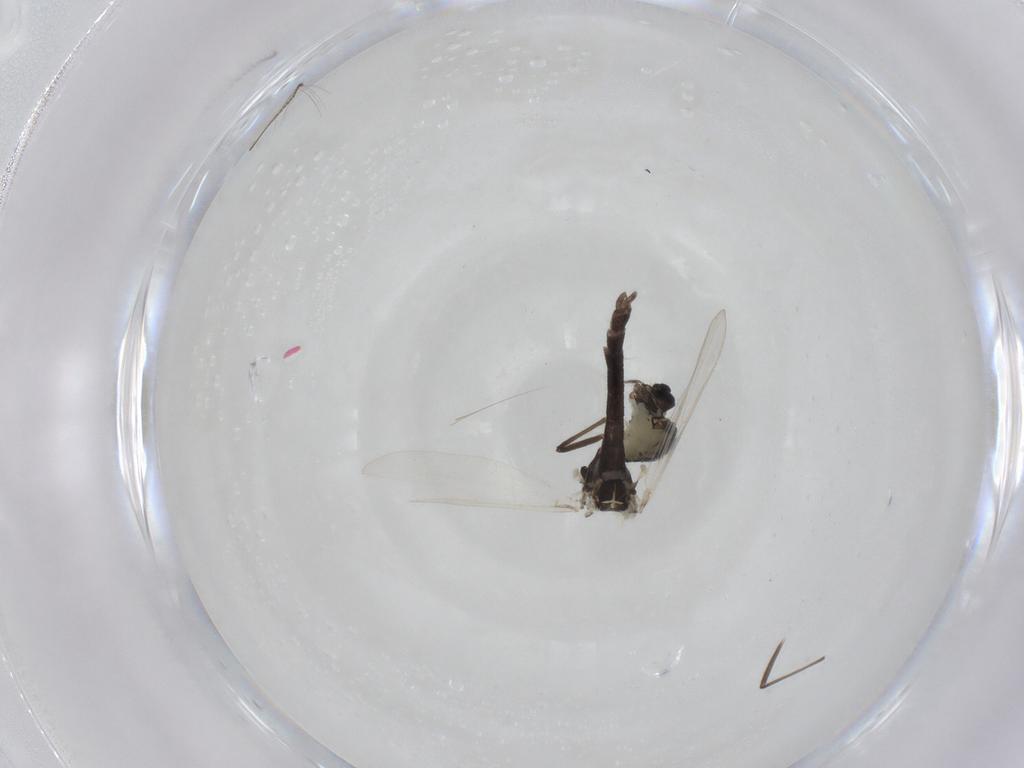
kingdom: Animalia
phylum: Arthropoda
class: Insecta
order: Diptera
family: Chironomidae
